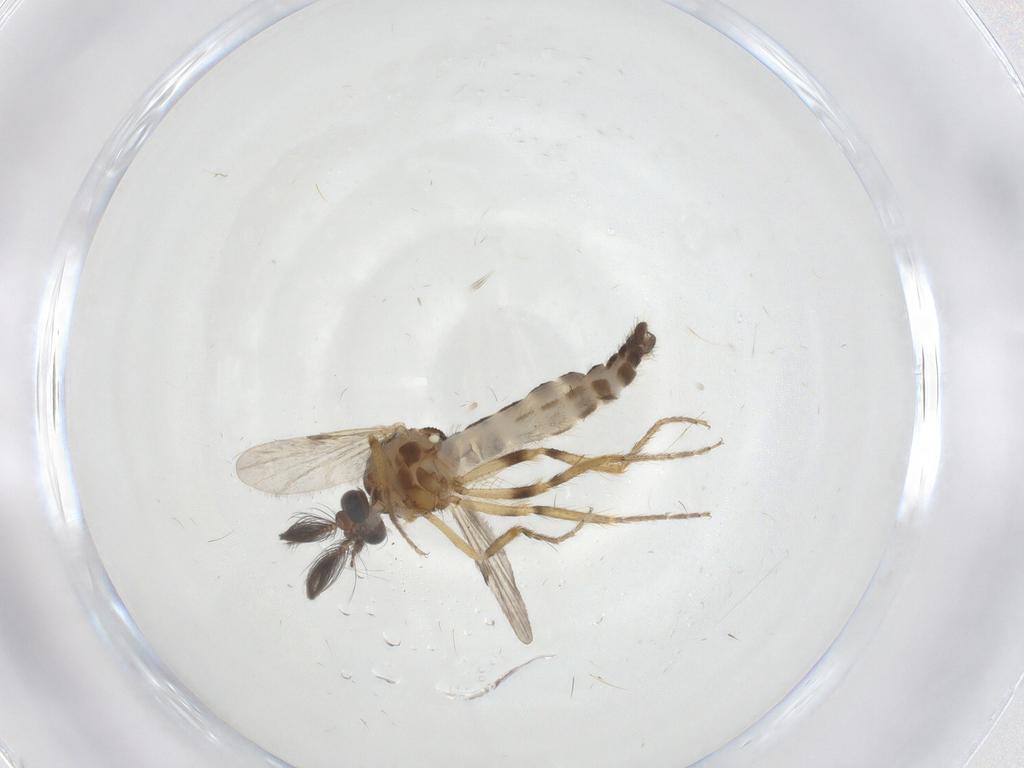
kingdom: Animalia
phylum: Arthropoda
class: Insecta
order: Diptera
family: Ceratopogonidae
